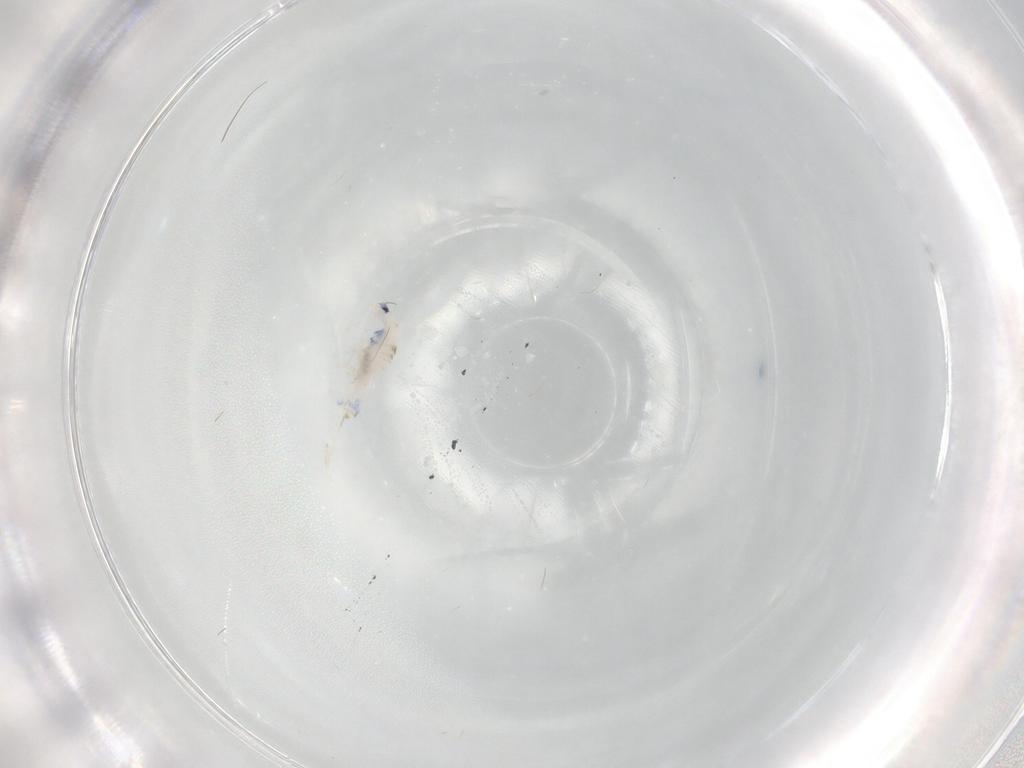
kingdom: Animalia
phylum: Arthropoda
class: Collembola
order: Entomobryomorpha
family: Entomobryidae
